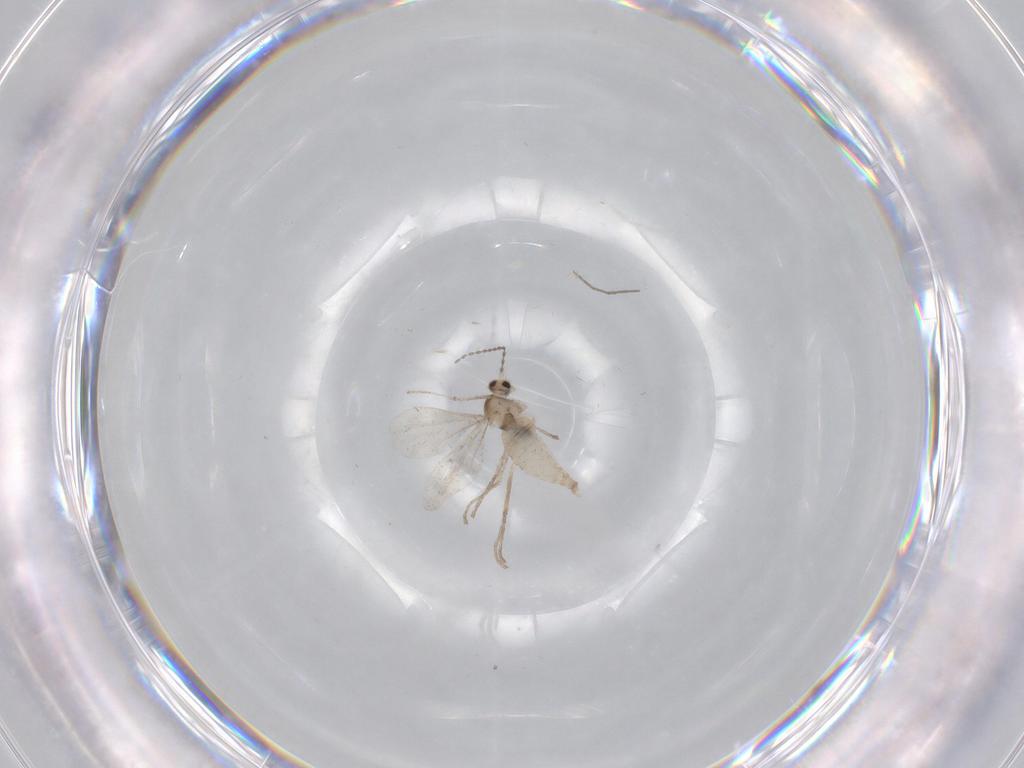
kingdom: Animalia
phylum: Arthropoda
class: Insecta
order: Diptera
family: Cecidomyiidae
